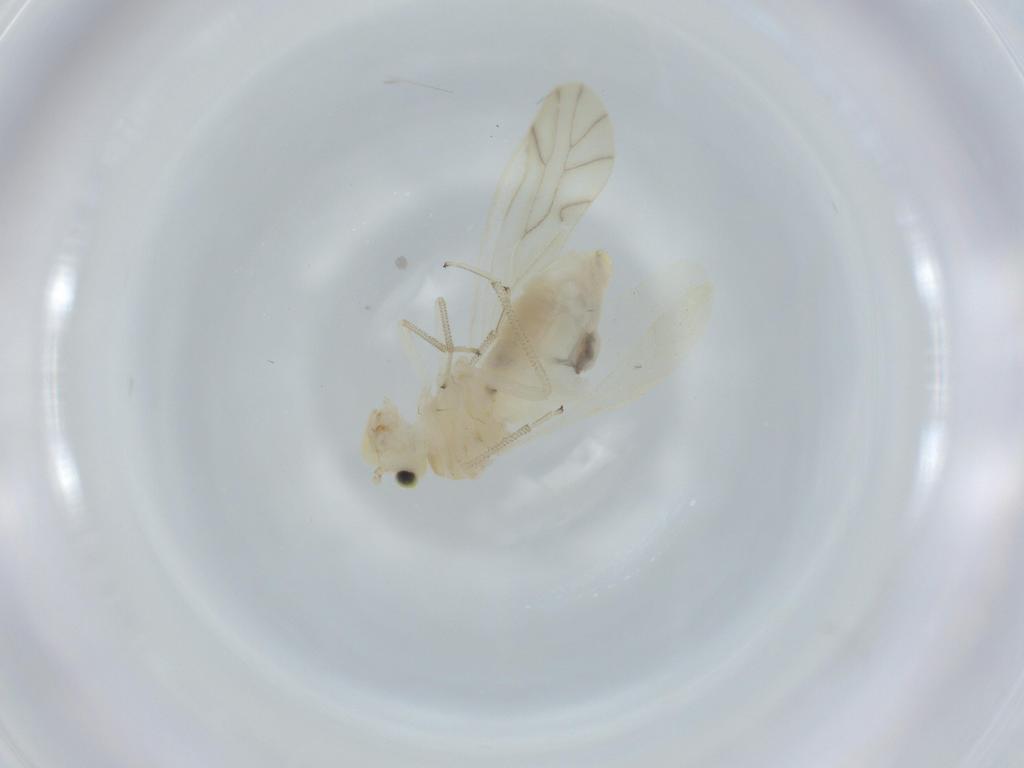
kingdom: Animalia
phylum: Arthropoda
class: Insecta
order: Psocodea
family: Caeciliusidae
